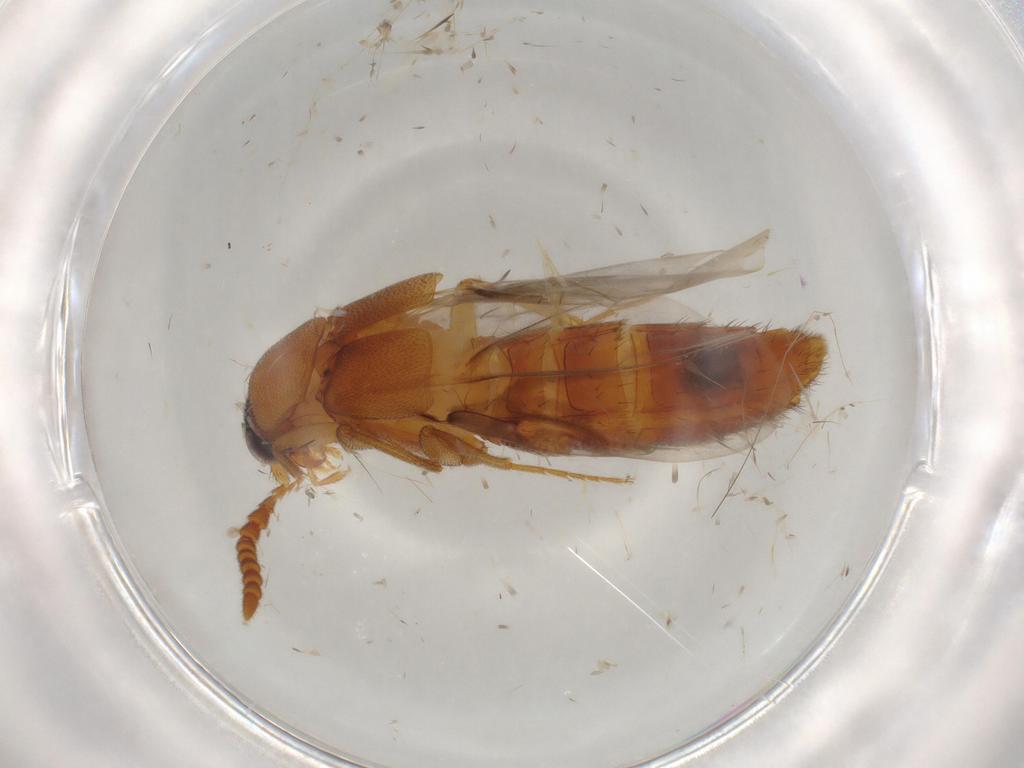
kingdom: Animalia
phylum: Arthropoda
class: Insecta
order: Coleoptera
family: Staphylinidae
